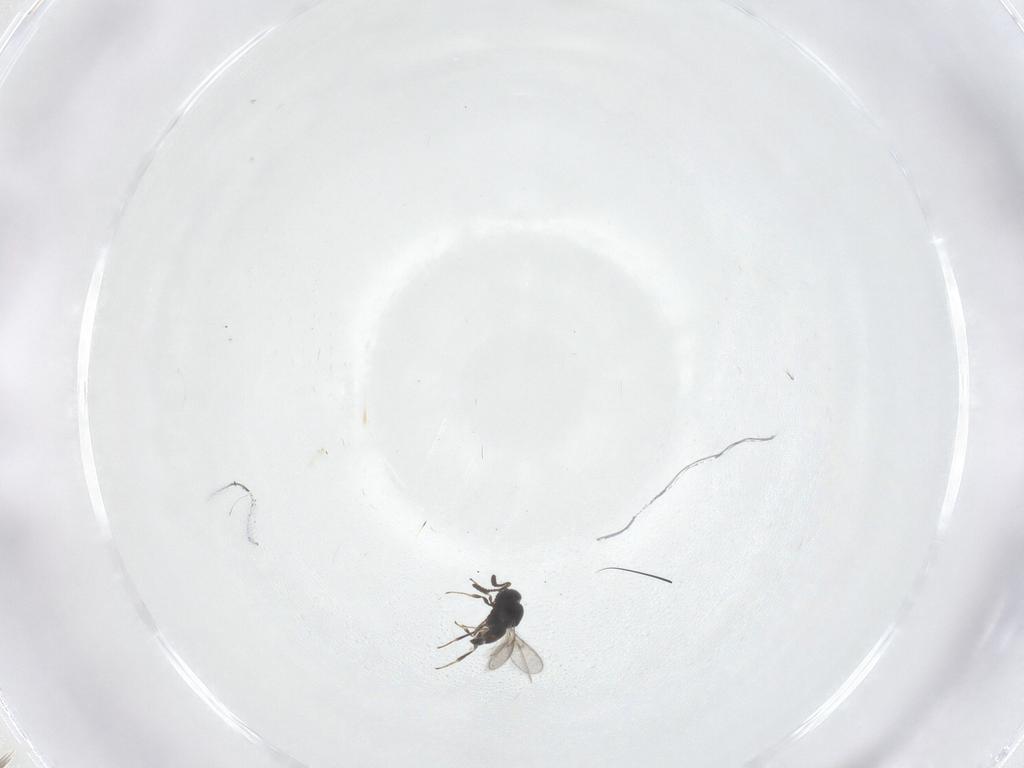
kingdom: Animalia
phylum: Arthropoda
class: Insecta
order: Hymenoptera
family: Scelionidae
